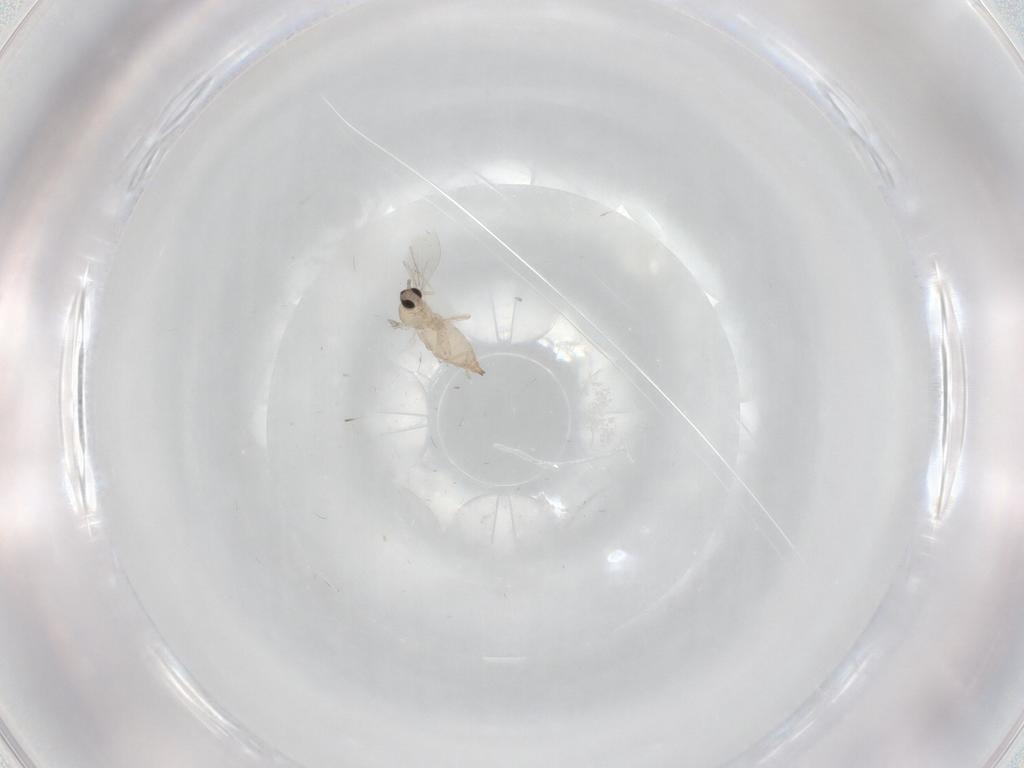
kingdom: Animalia
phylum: Arthropoda
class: Insecta
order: Diptera
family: Cecidomyiidae
